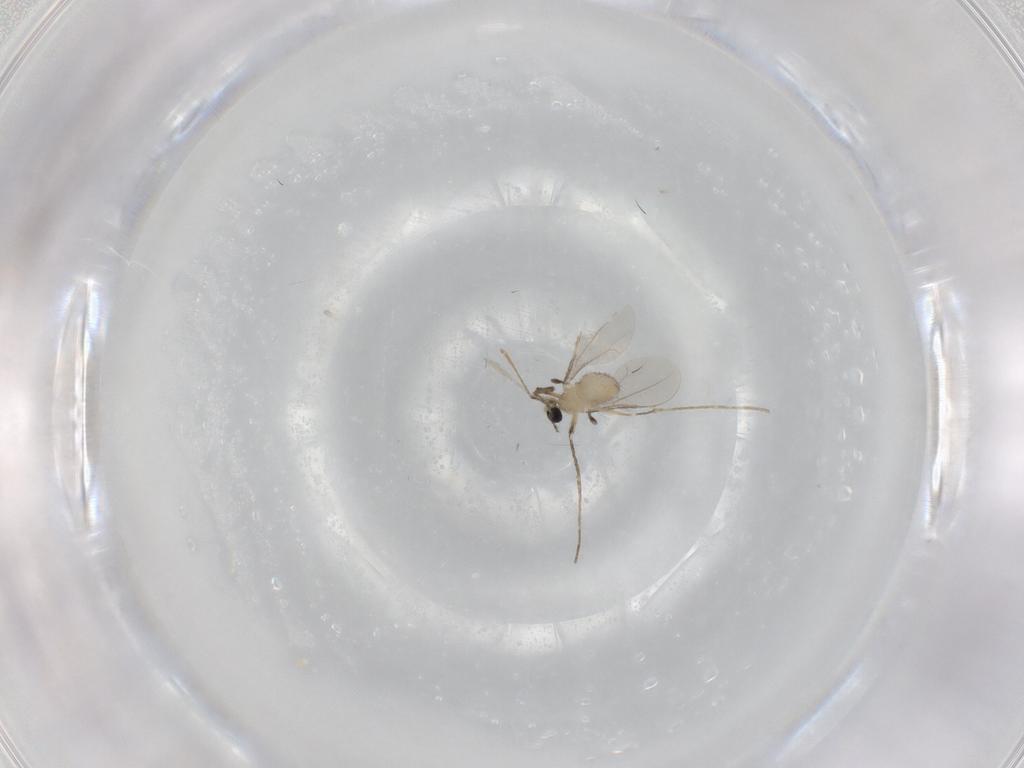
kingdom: Animalia
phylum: Arthropoda
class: Insecta
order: Diptera
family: Cecidomyiidae
